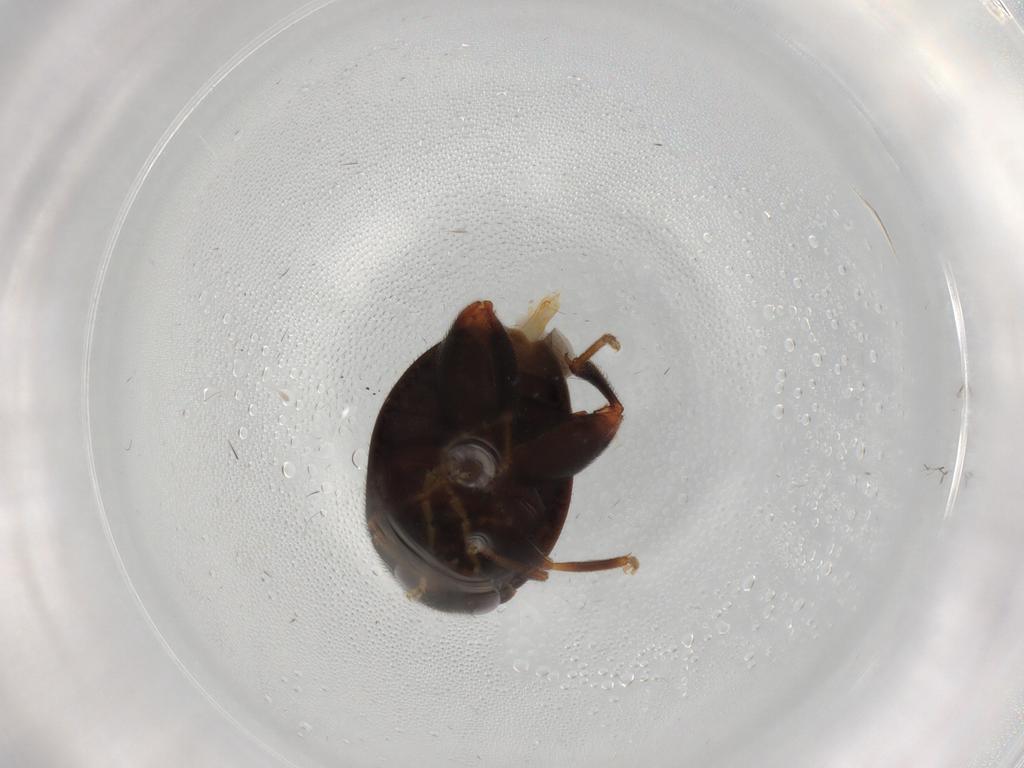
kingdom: Animalia
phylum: Arthropoda
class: Insecta
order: Coleoptera
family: Scirtidae
